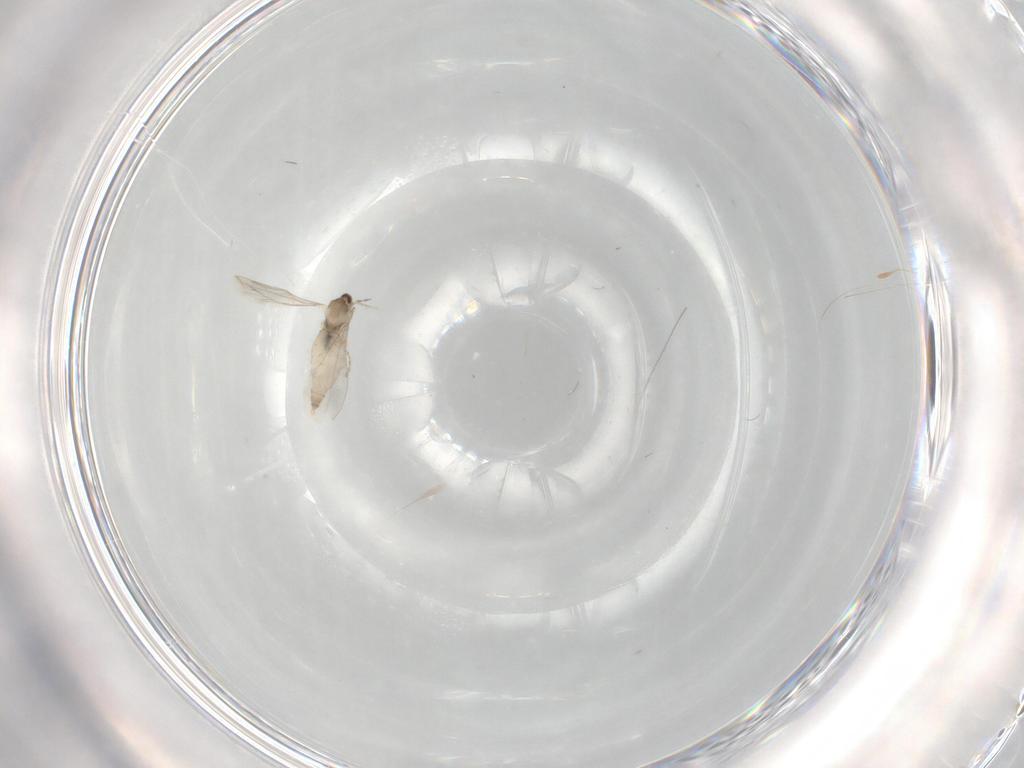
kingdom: Animalia
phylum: Arthropoda
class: Insecta
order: Diptera
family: Cecidomyiidae
